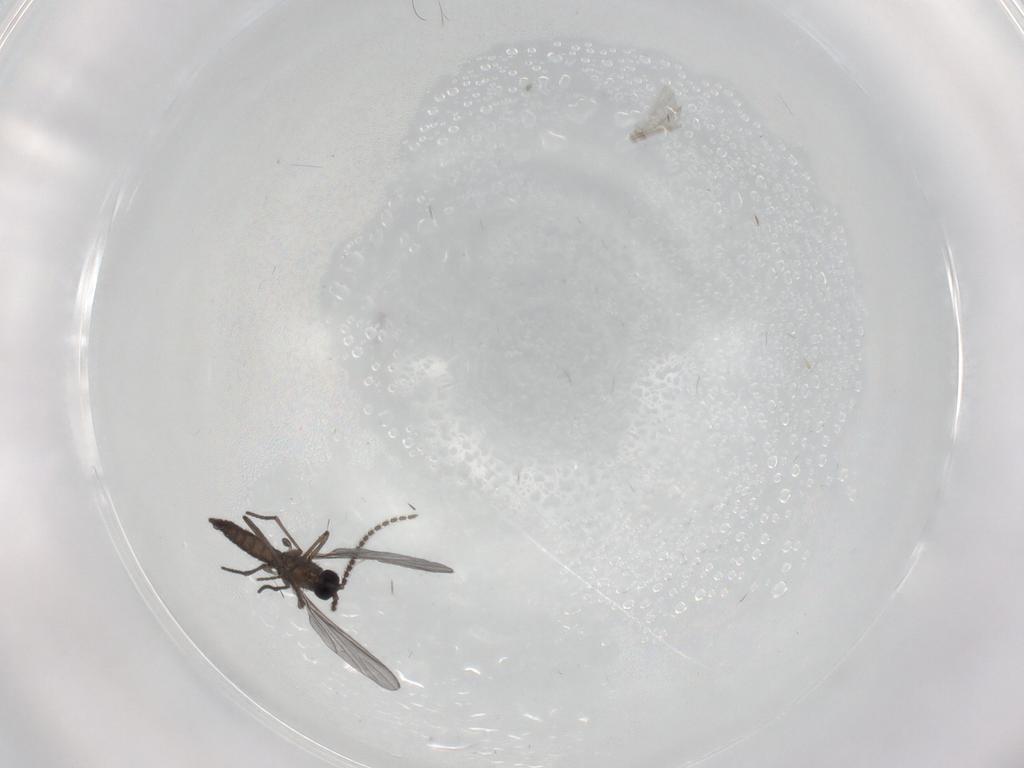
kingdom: Animalia
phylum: Arthropoda
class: Insecta
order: Diptera
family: Cecidomyiidae
